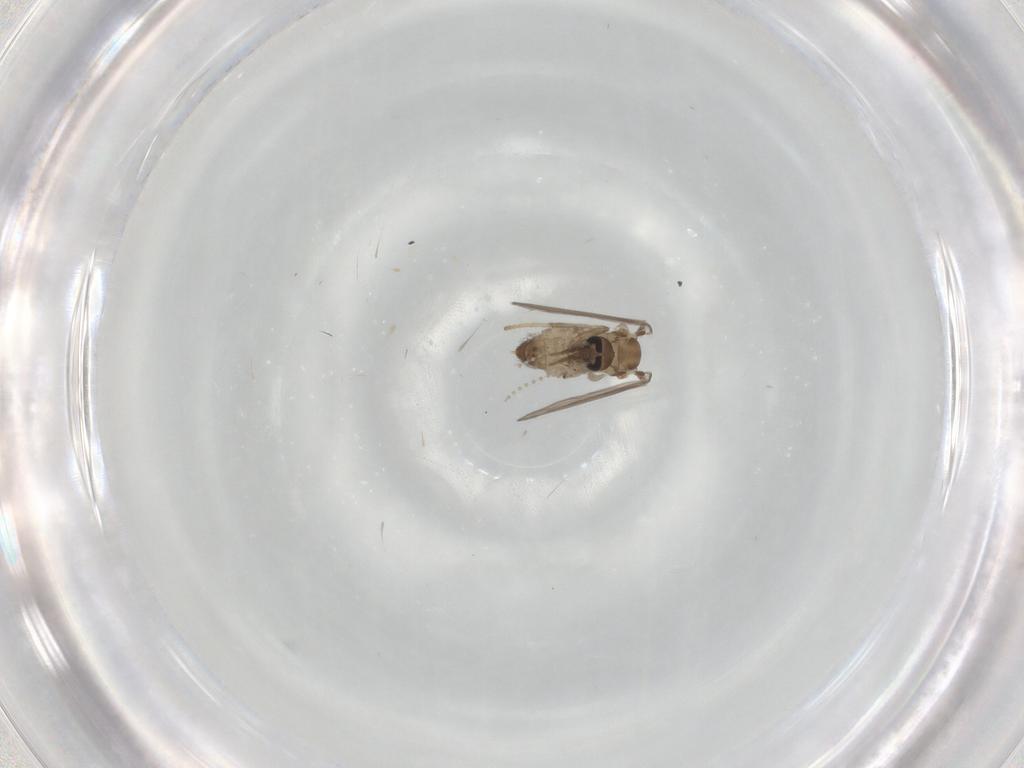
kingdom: Animalia
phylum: Arthropoda
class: Insecta
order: Diptera
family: Psychodidae
